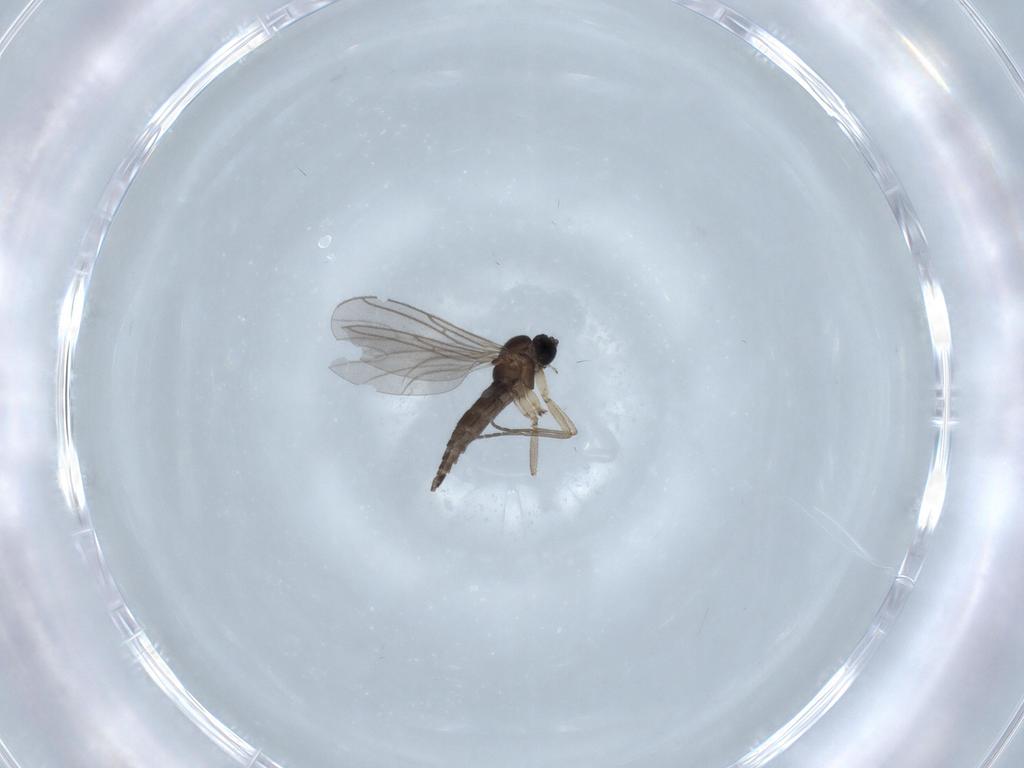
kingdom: Animalia
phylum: Arthropoda
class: Insecta
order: Diptera
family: Sciaridae
